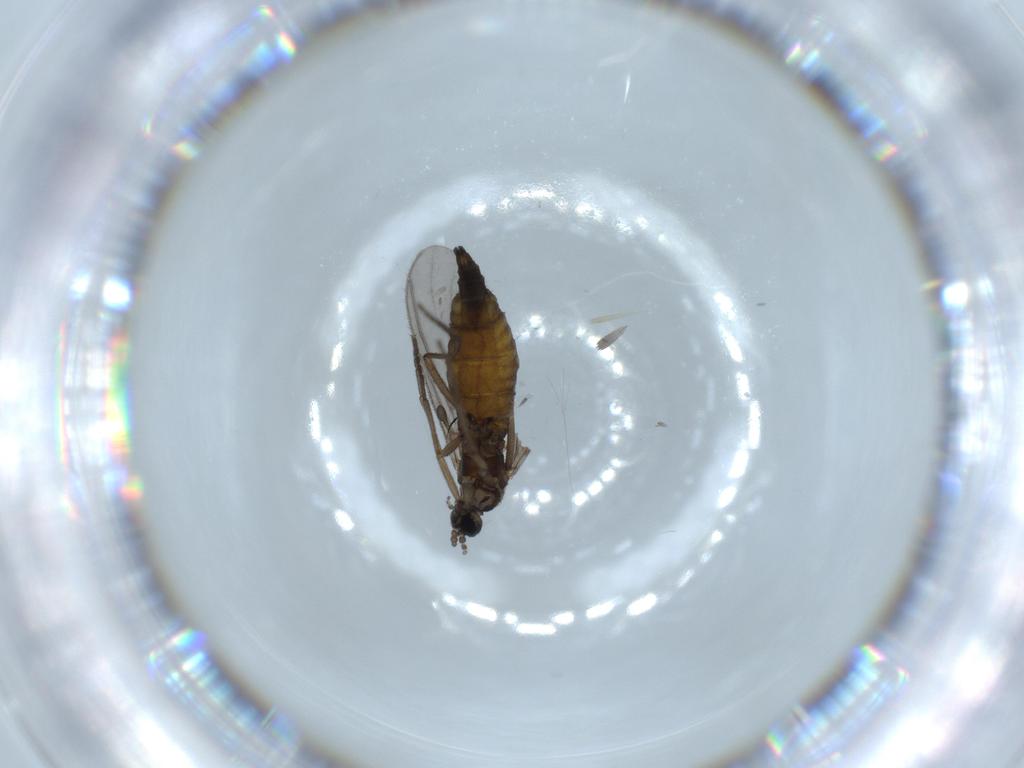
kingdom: Animalia
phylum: Arthropoda
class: Insecta
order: Diptera
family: Sciaridae
